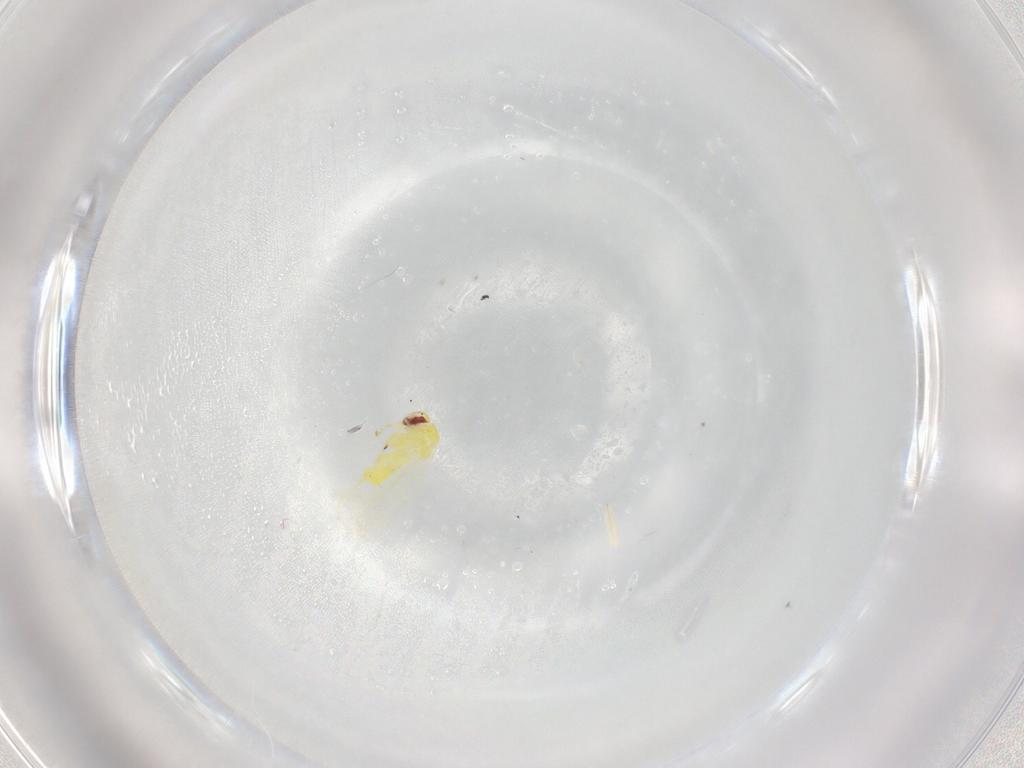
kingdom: Animalia
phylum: Arthropoda
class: Insecta
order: Hemiptera
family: Aleyrodidae
